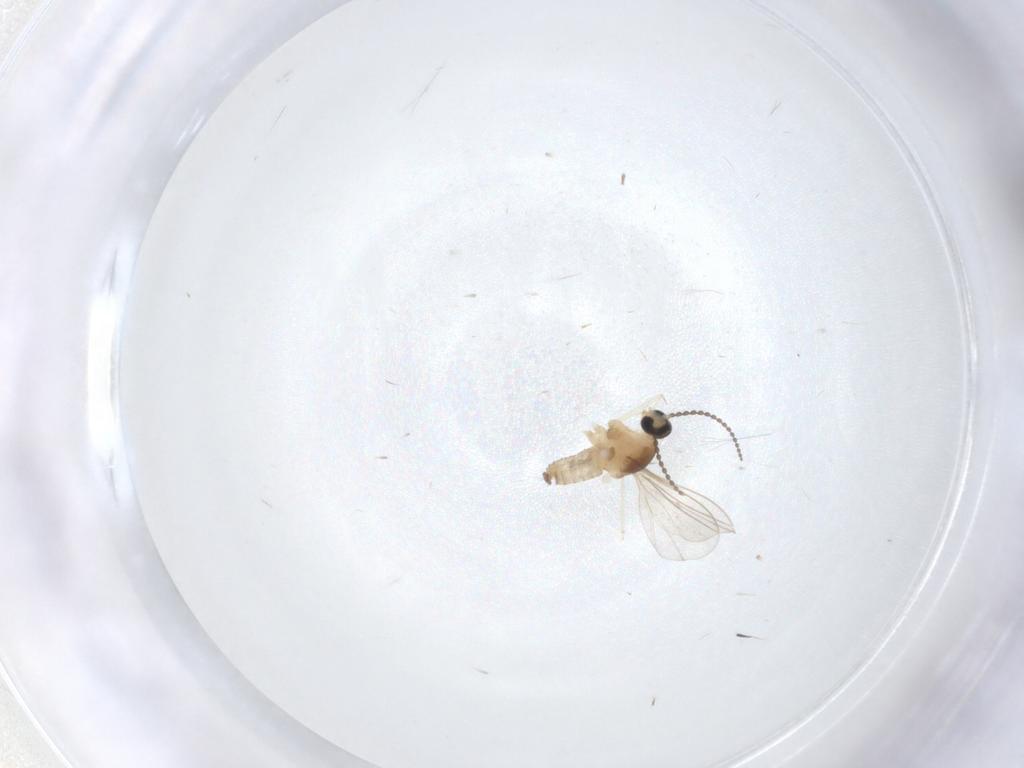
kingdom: Animalia
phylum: Arthropoda
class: Insecta
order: Diptera
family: Cecidomyiidae
